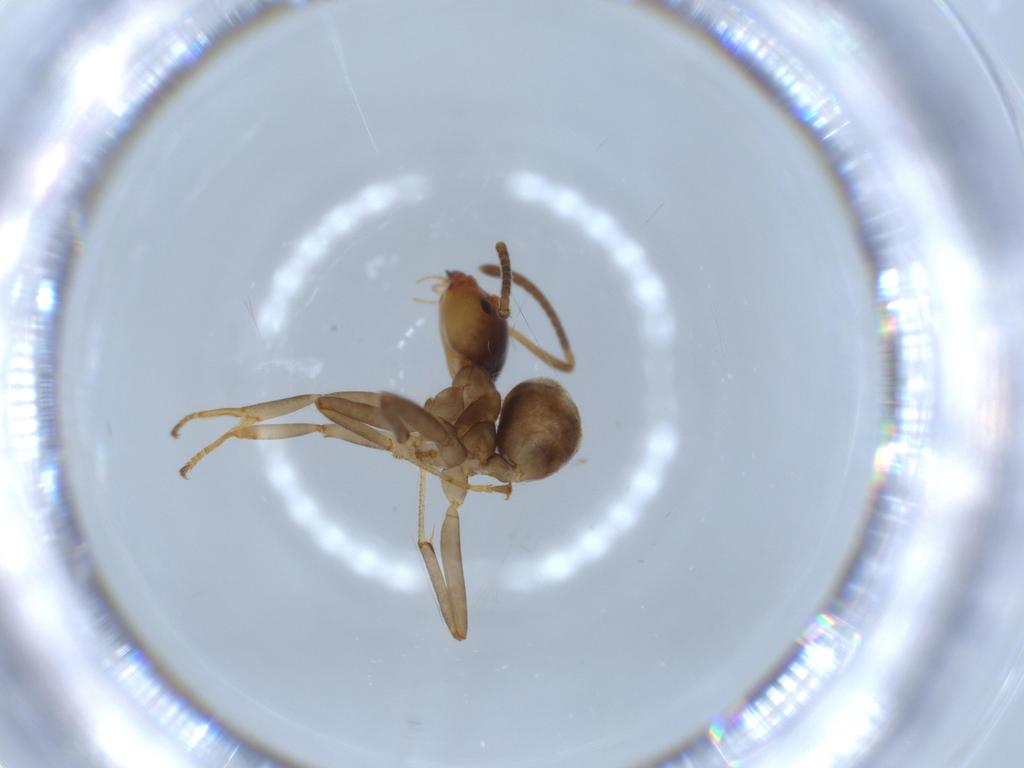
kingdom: Animalia
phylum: Arthropoda
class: Insecta
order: Hymenoptera
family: Formicidae
